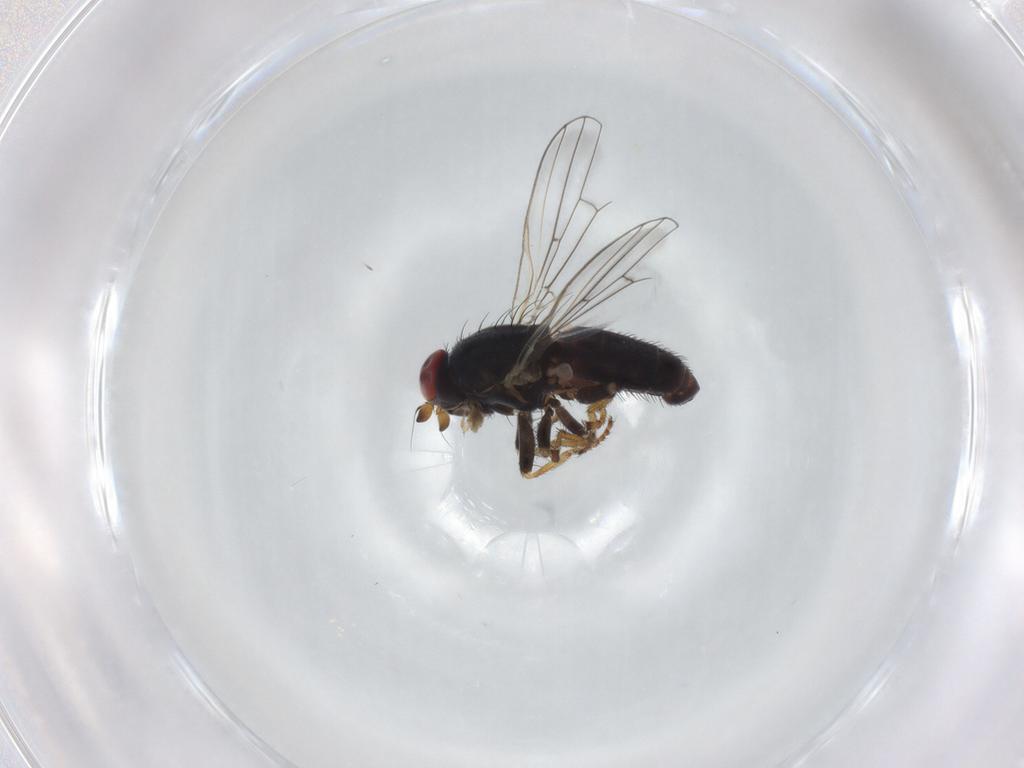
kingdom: Animalia
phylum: Arthropoda
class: Insecta
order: Diptera
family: Chamaemyiidae
